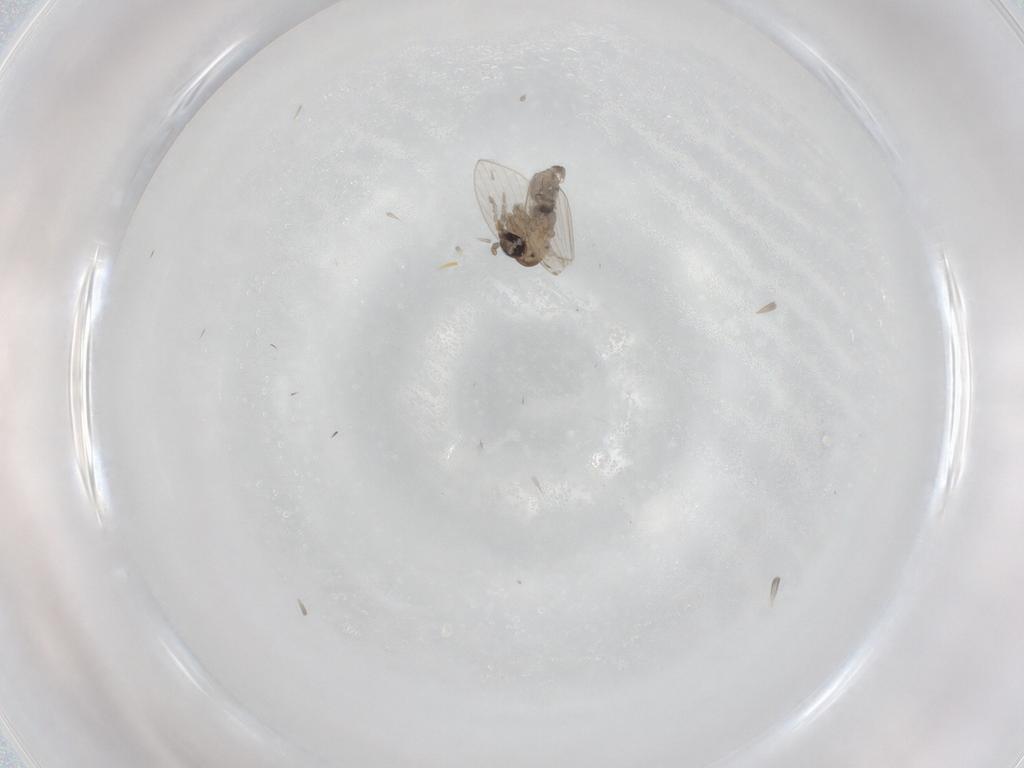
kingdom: Animalia
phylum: Arthropoda
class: Insecta
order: Diptera
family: Psychodidae
